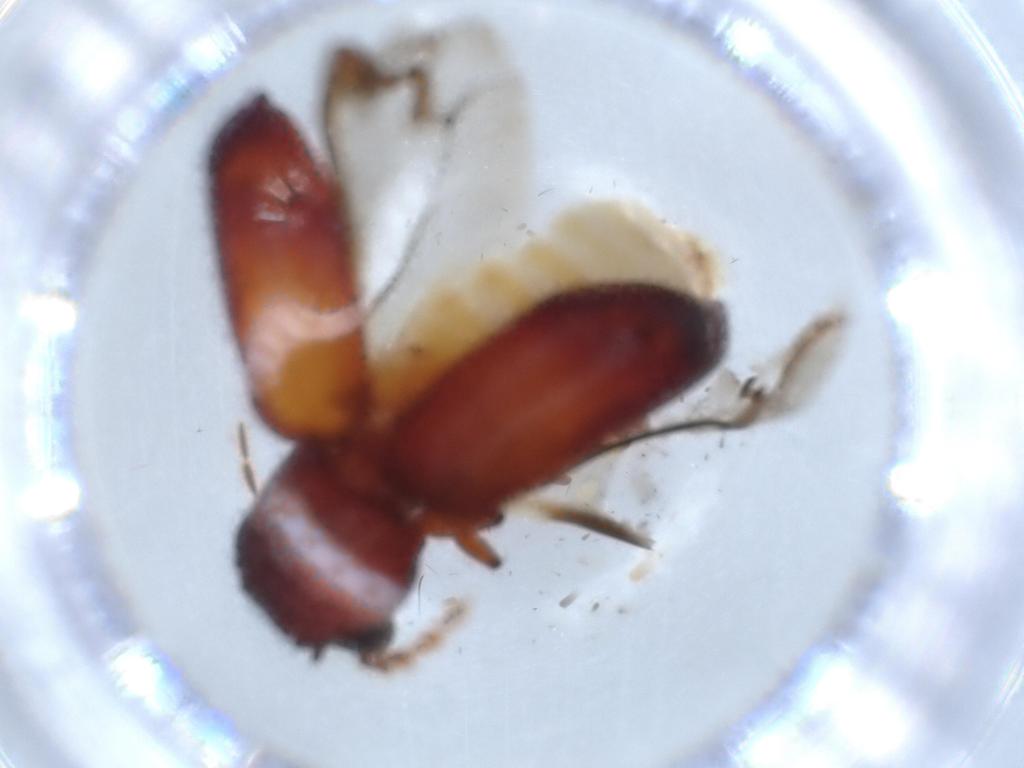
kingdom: Animalia
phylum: Arthropoda
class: Insecta
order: Coleoptera
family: Bostrichidae
